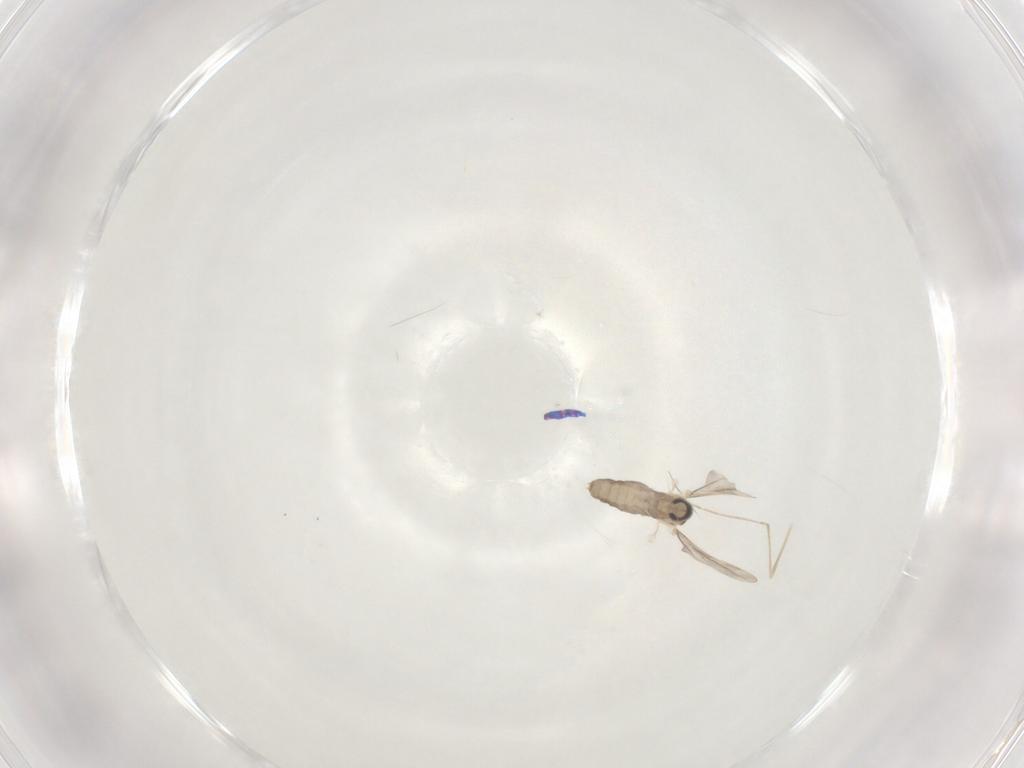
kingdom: Animalia
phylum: Arthropoda
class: Insecta
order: Diptera
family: Cecidomyiidae
